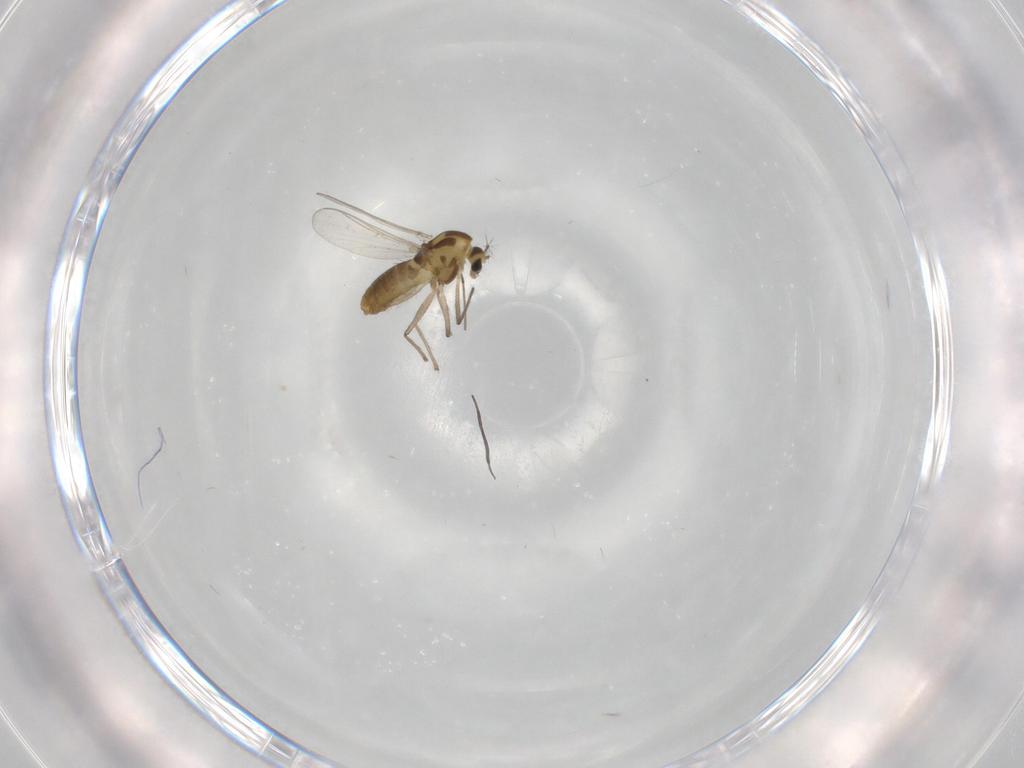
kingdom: Animalia
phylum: Arthropoda
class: Insecta
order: Diptera
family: Chironomidae
